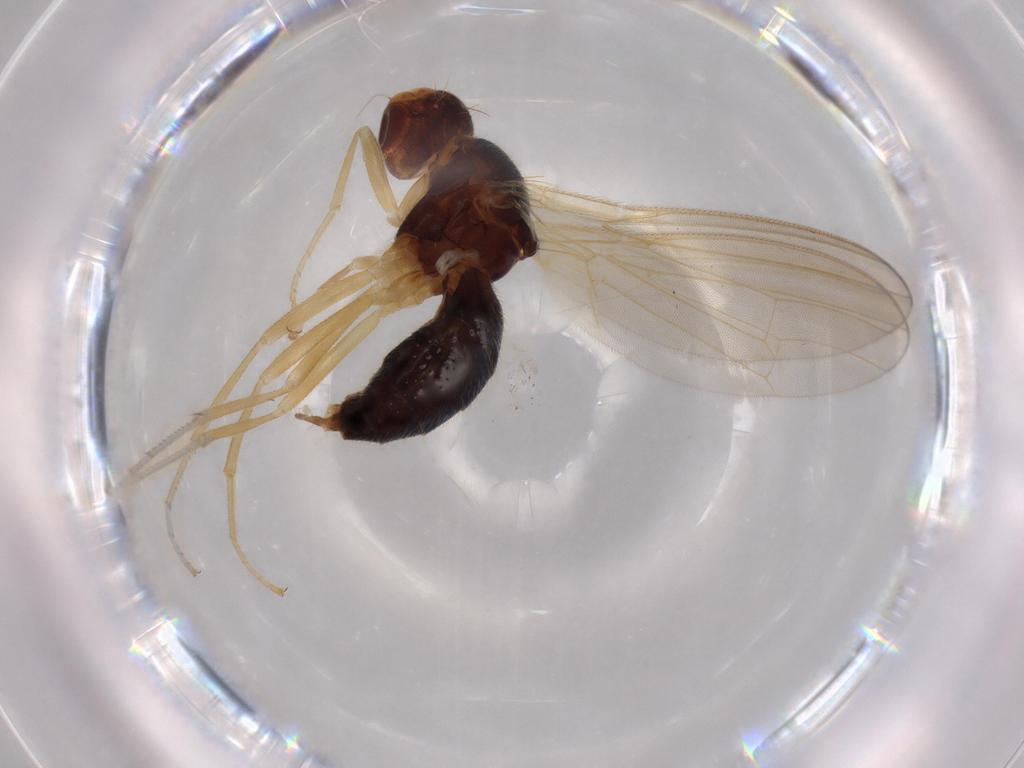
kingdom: Animalia
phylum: Arthropoda
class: Insecta
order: Diptera
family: Psilidae
